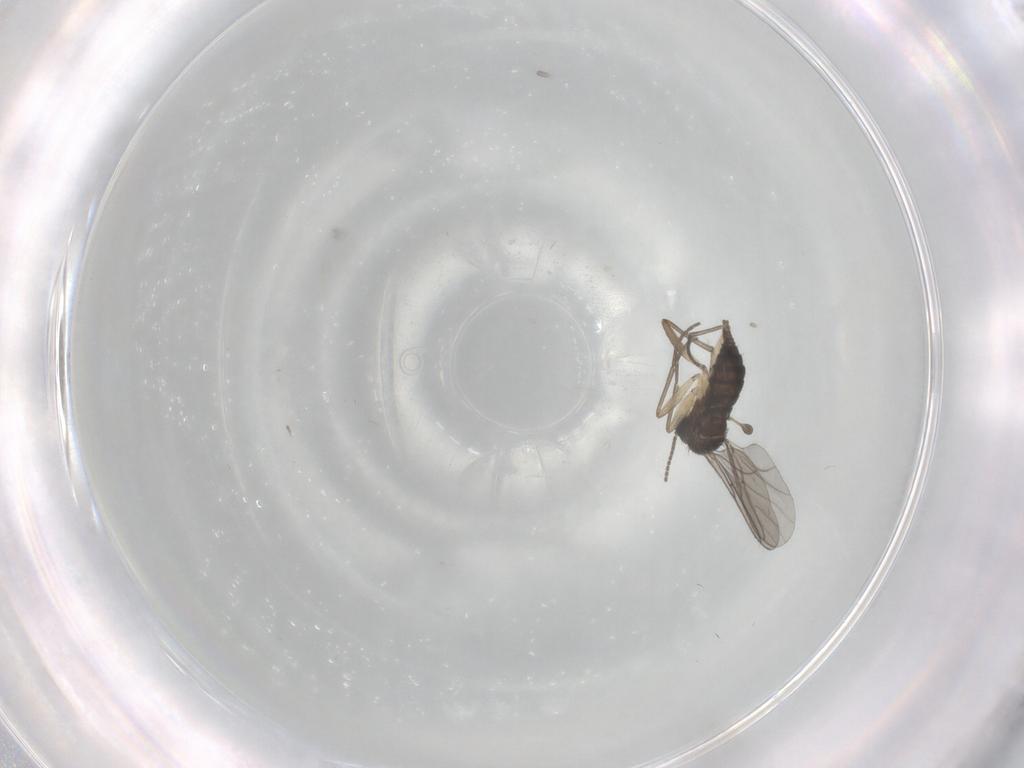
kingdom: Animalia
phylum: Arthropoda
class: Insecta
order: Diptera
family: Sciaridae
